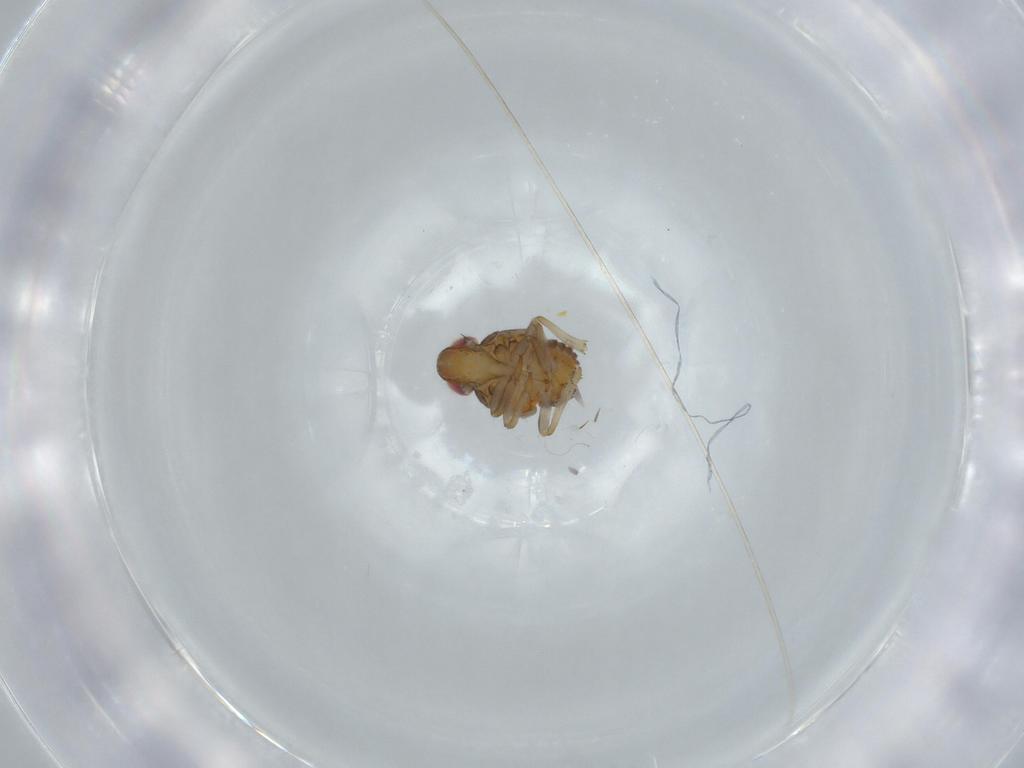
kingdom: Animalia
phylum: Arthropoda
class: Insecta
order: Hemiptera
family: Issidae
